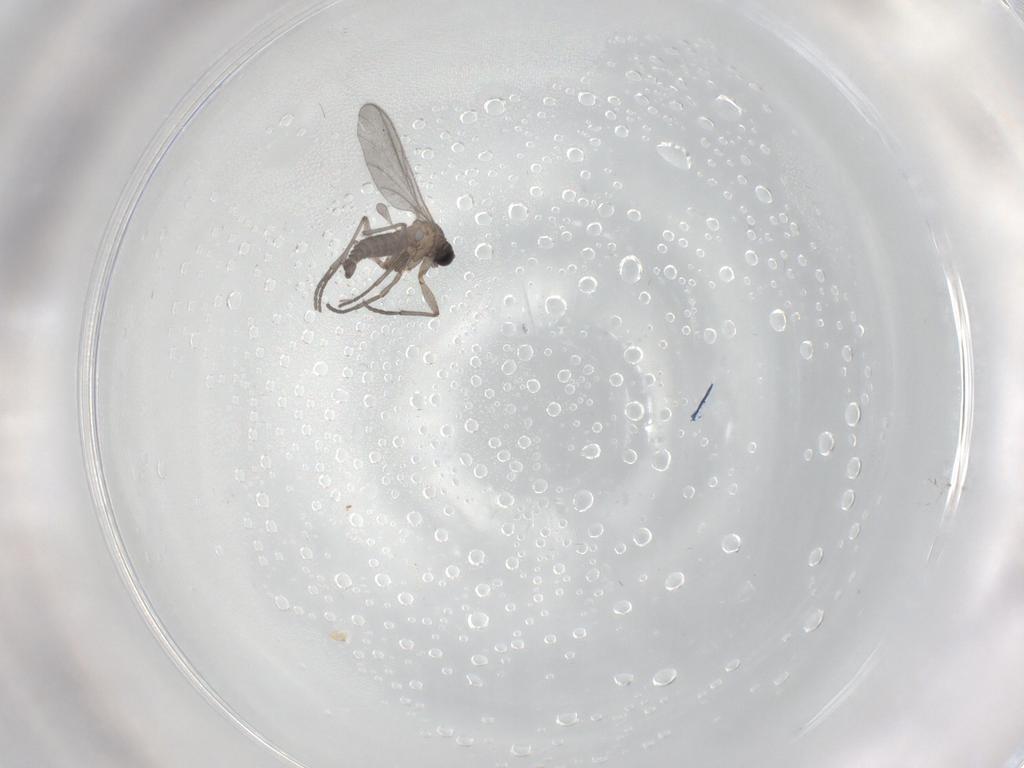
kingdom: Animalia
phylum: Arthropoda
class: Insecta
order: Diptera
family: Sciaridae
